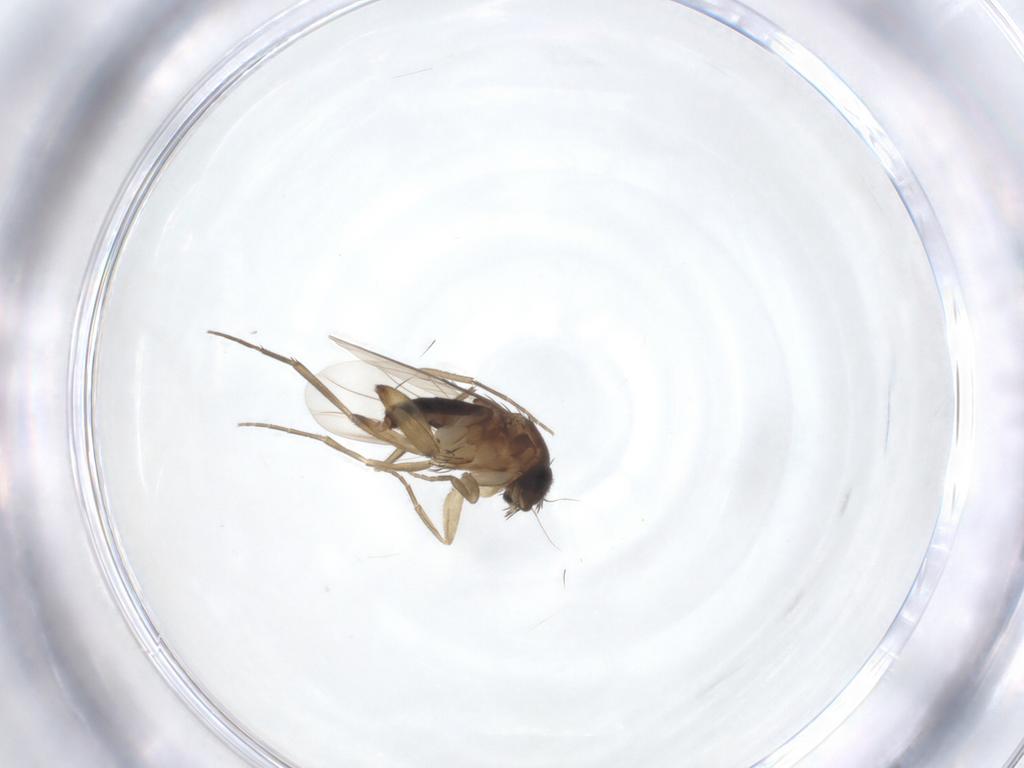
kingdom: Animalia
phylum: Arthropoda
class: Insecta
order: Diptera
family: Phoridae
